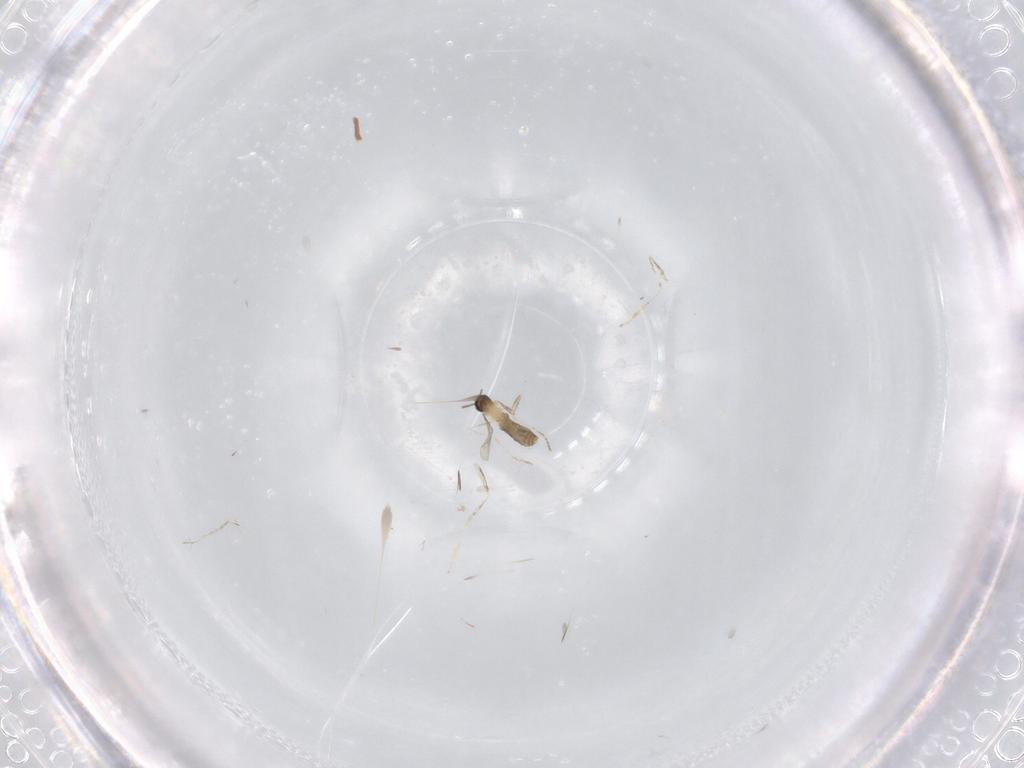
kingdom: Animalia
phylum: Arthropoda
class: Insecta
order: Diptera
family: Cecidomyiidae
